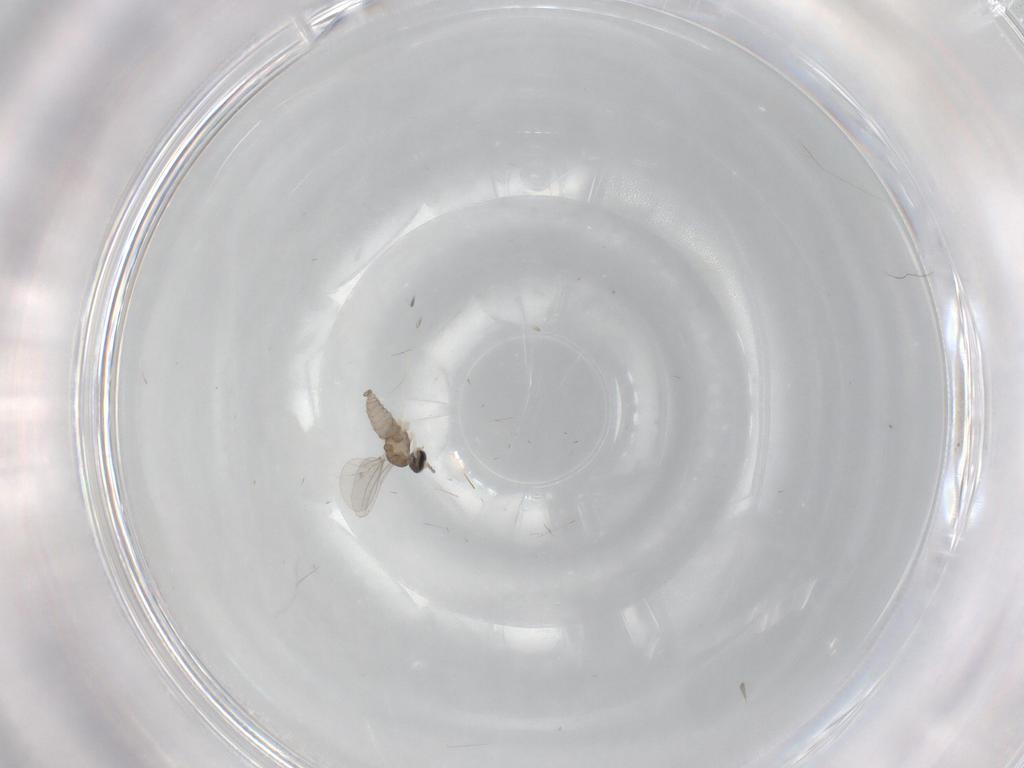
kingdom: Animalia
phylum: Arthropoda
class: Insecta
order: Diptera
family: Cecidomyiidae
